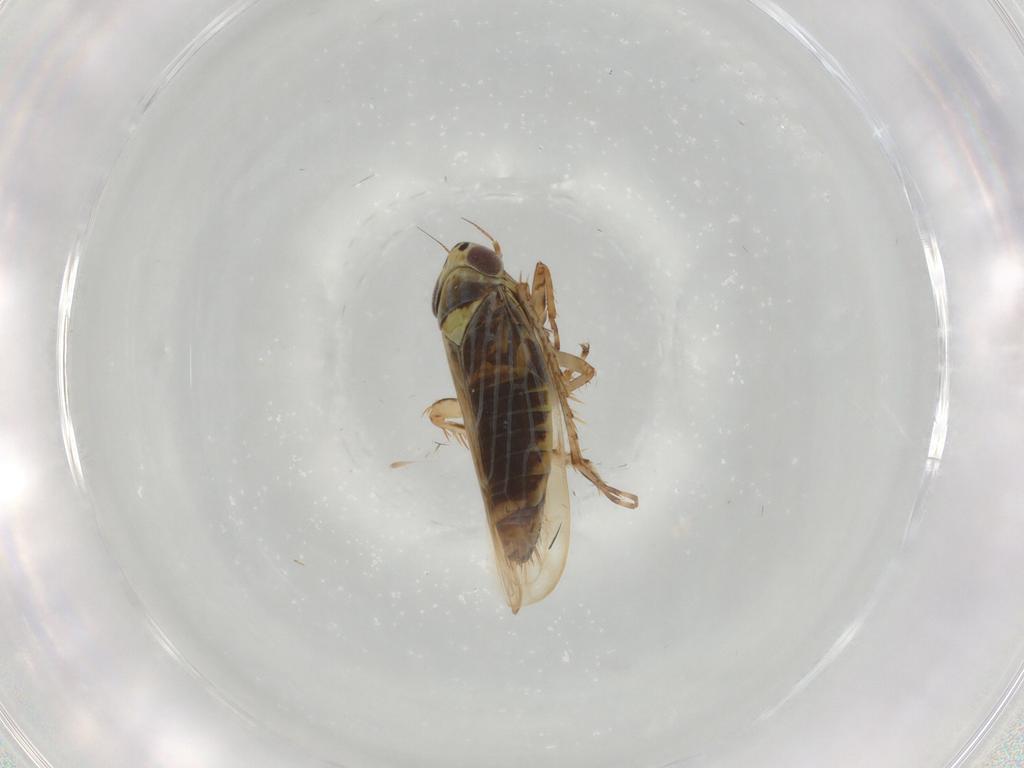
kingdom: Animalia
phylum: Arthropoda
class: Insecta
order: Hemiptera
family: Cicadellidae
